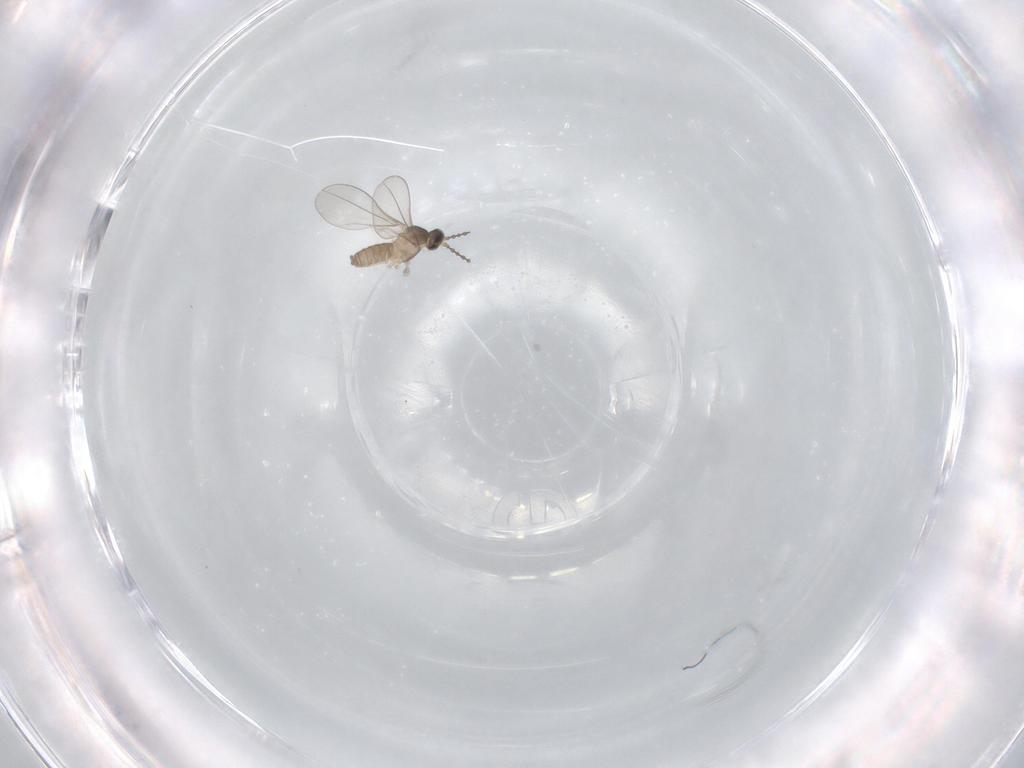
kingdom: Animalia
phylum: Arthropoda
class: Insecta
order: Diptera
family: Cecidomyiidae
